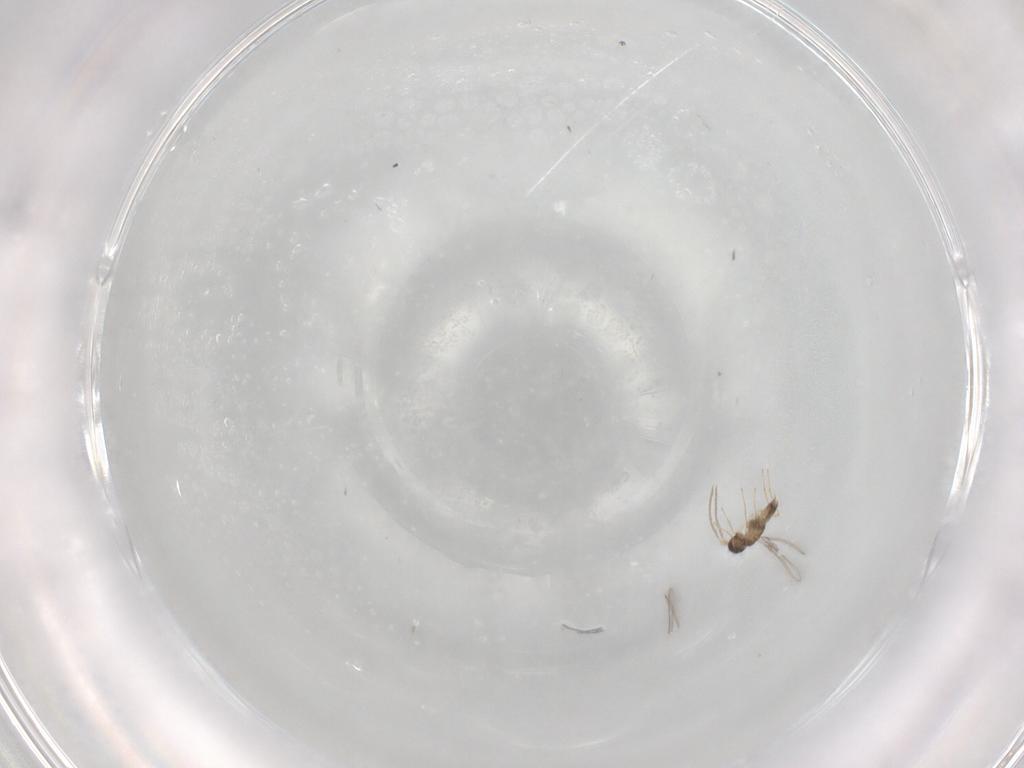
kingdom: Animalia
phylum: Arthropoda
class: Insecta
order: Hymenoptera
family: Mymaridae
